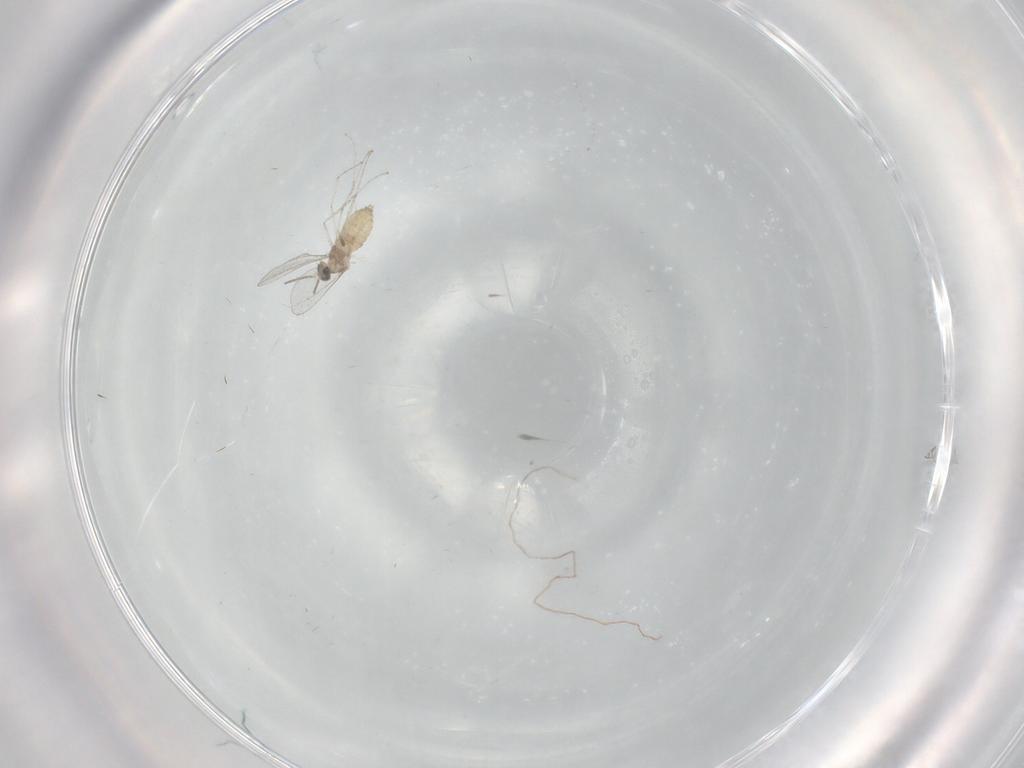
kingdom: Animalia
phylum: Arthropoda
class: Insecta
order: Diptera
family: Cecidomyiidae
